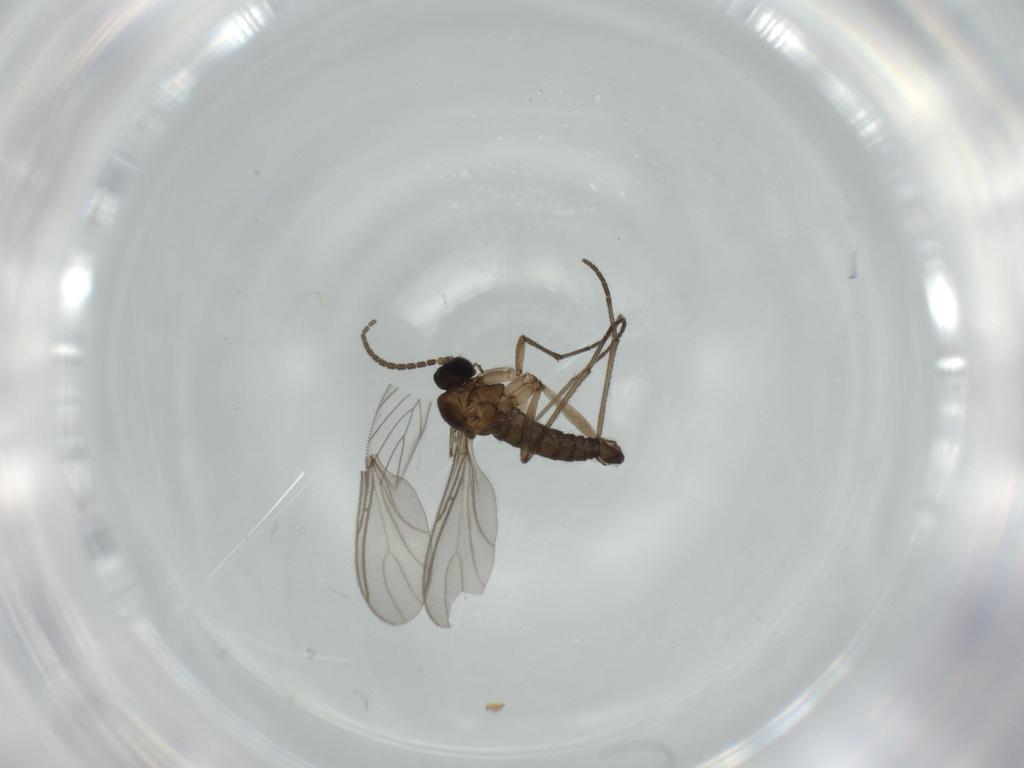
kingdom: Animalia
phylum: Arthropoda
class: Insecta
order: Diptera
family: Sciaridae
